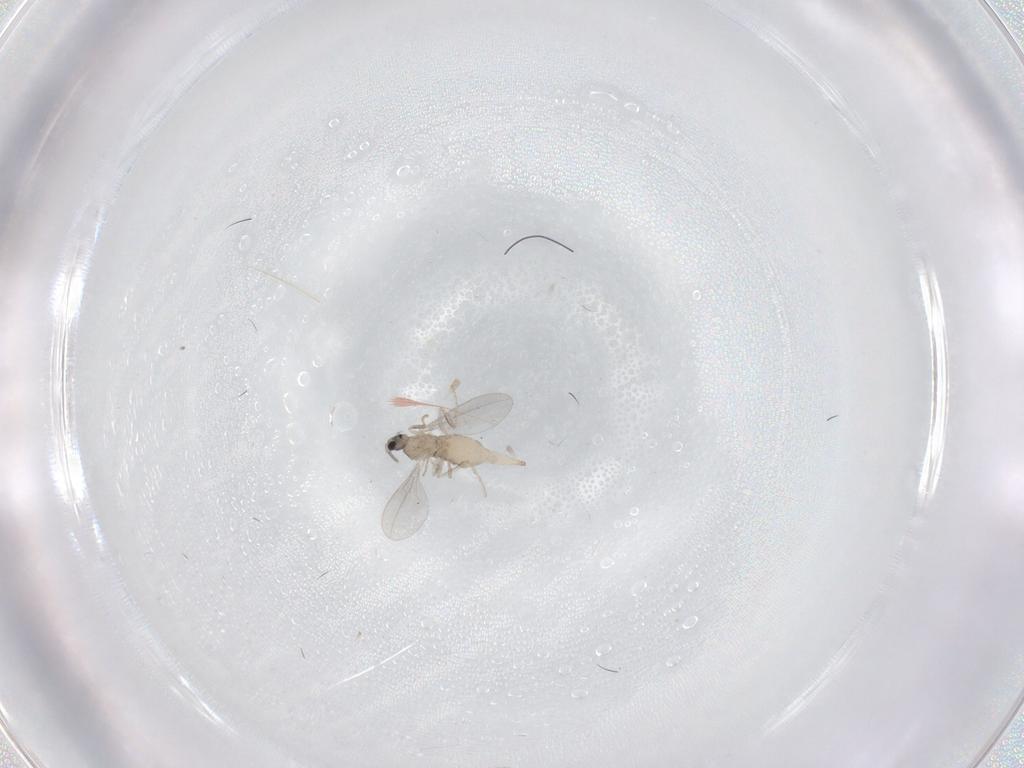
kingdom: Animalia
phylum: Arthropoda
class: Insecta
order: Diptera
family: Cecidomyiidae
